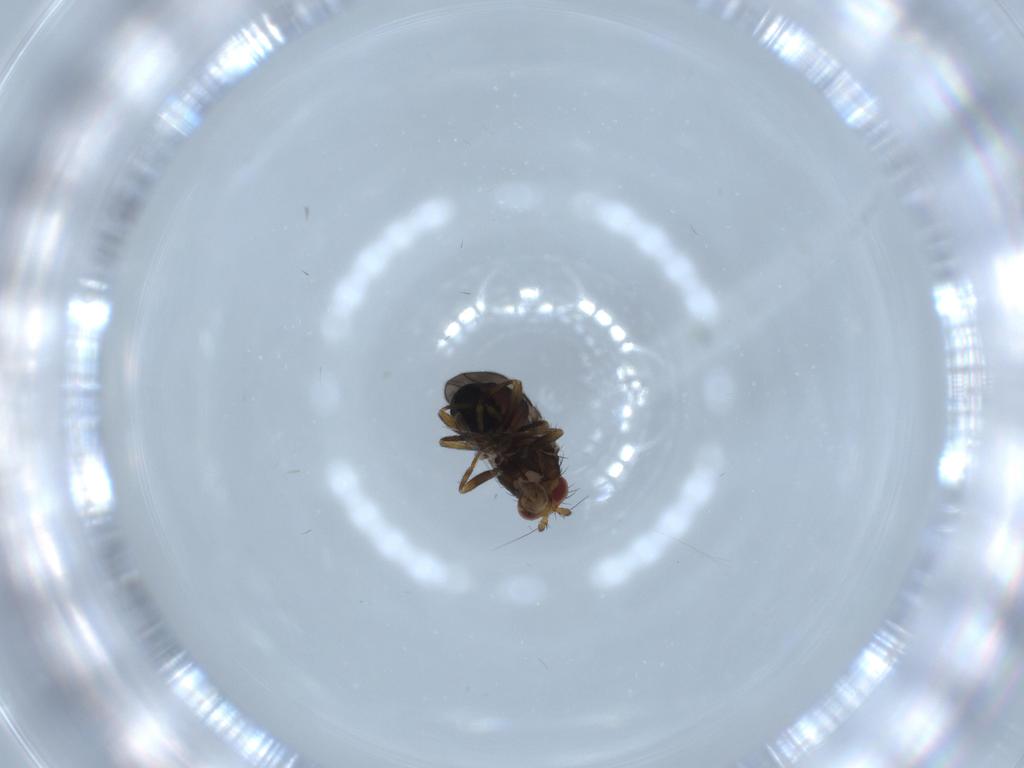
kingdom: Animalia
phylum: Arthropoda
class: Insecta
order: Diptera
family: Sphaeroceridae
